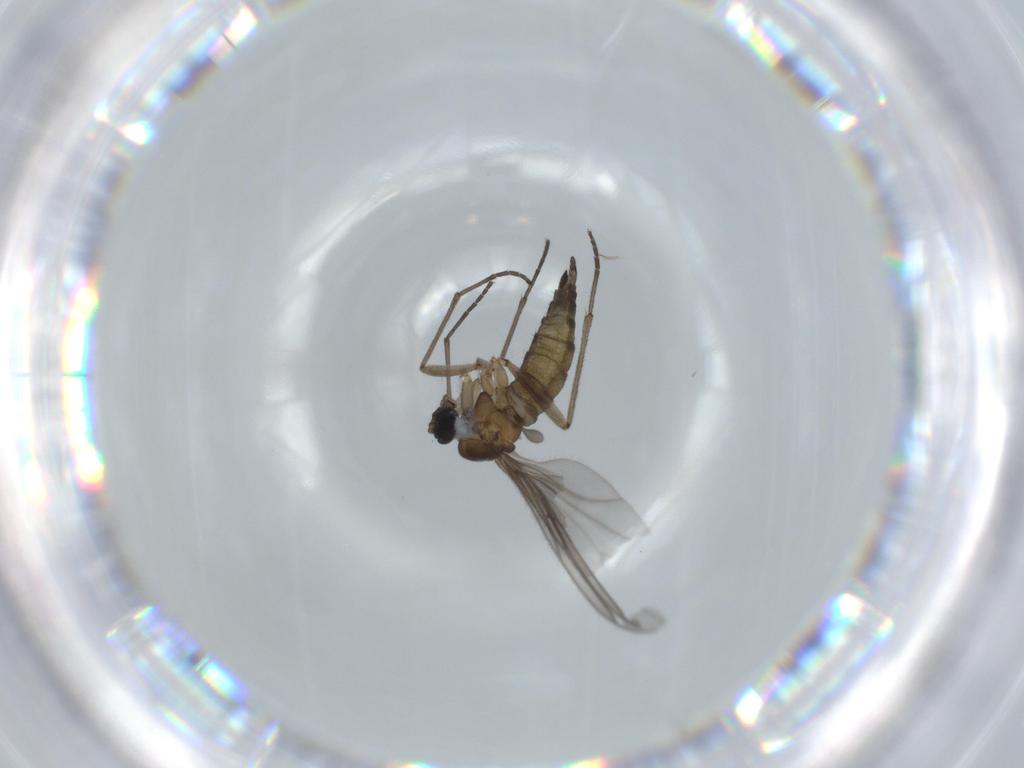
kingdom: Animalia
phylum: Arthropoda
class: Insecta
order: Diptera
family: Sciaridae
